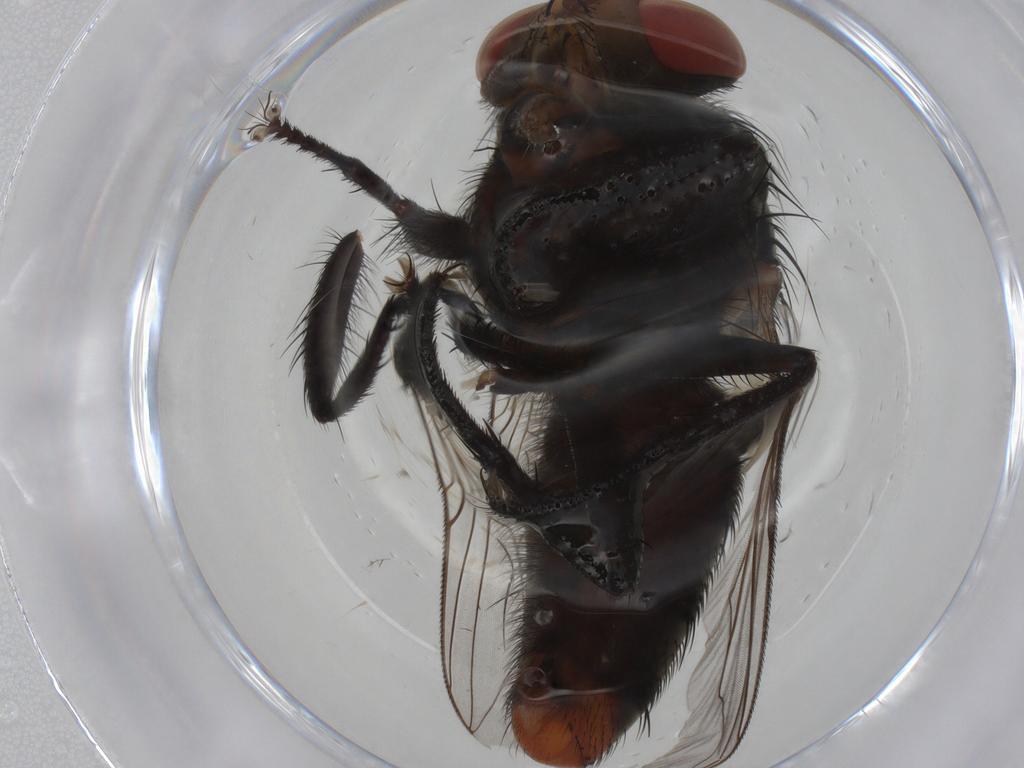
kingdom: Animalia
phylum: Arthropoda
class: Insecta
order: Diptera
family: Sarcophagidae
